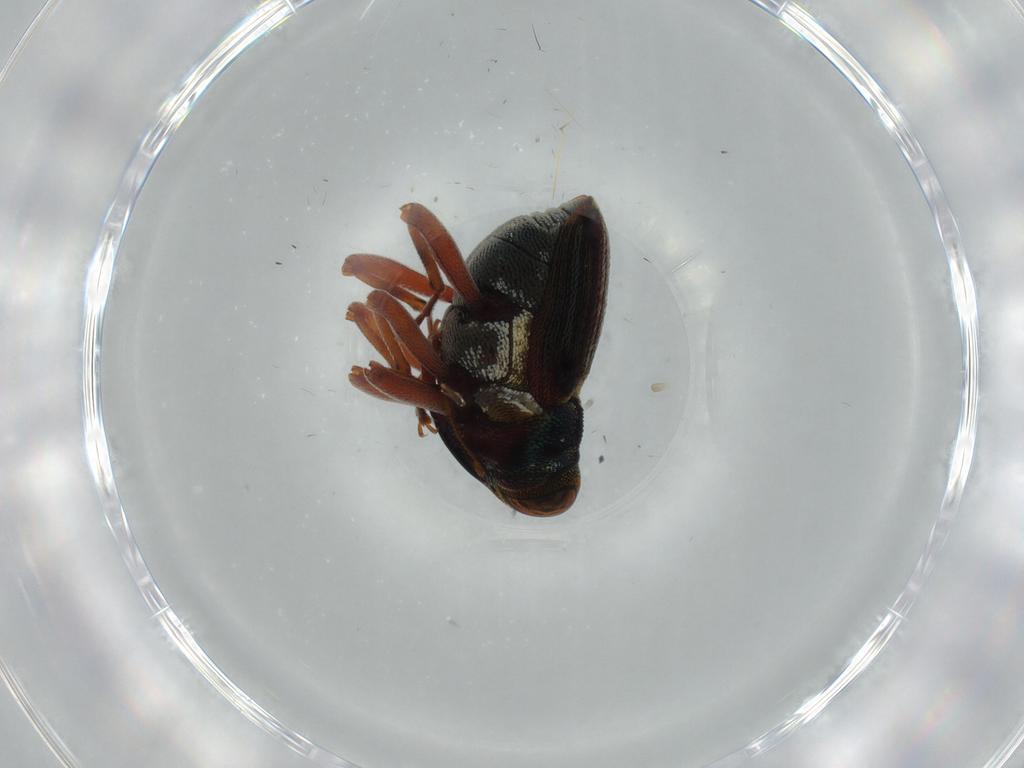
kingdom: Animalia
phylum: Arthropoda
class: Insecta
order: Coleoptera
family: Curculionidae
